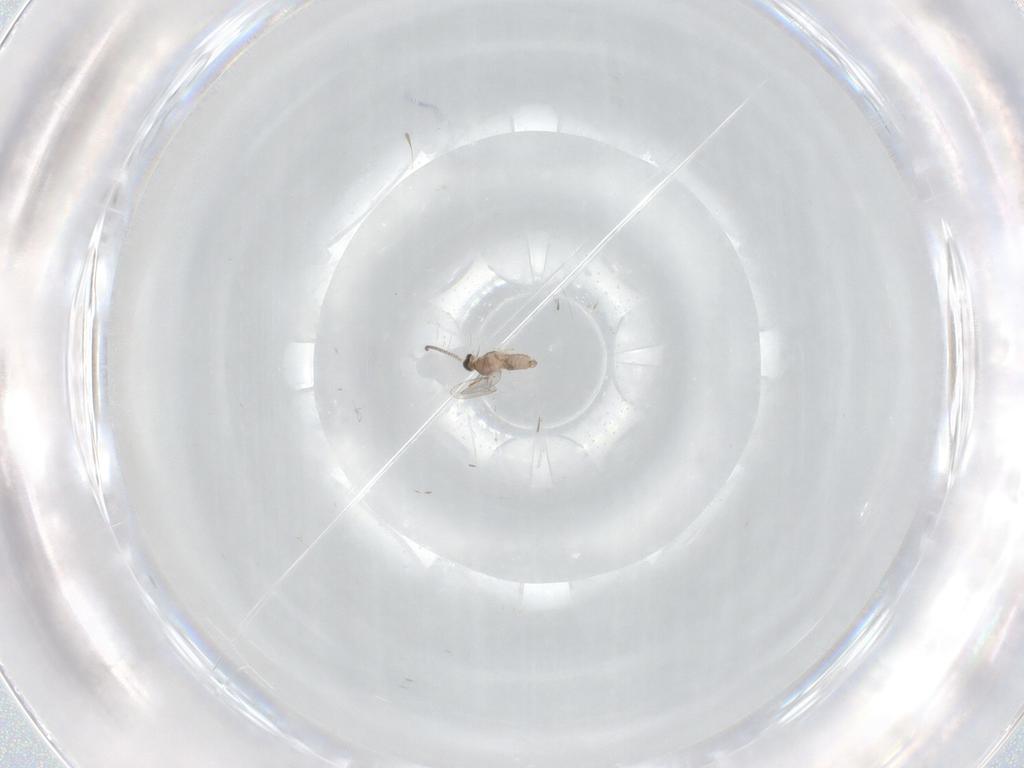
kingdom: Animalia
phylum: Arthropoda
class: Insecta
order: Diptera
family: Cecidomyiidae
